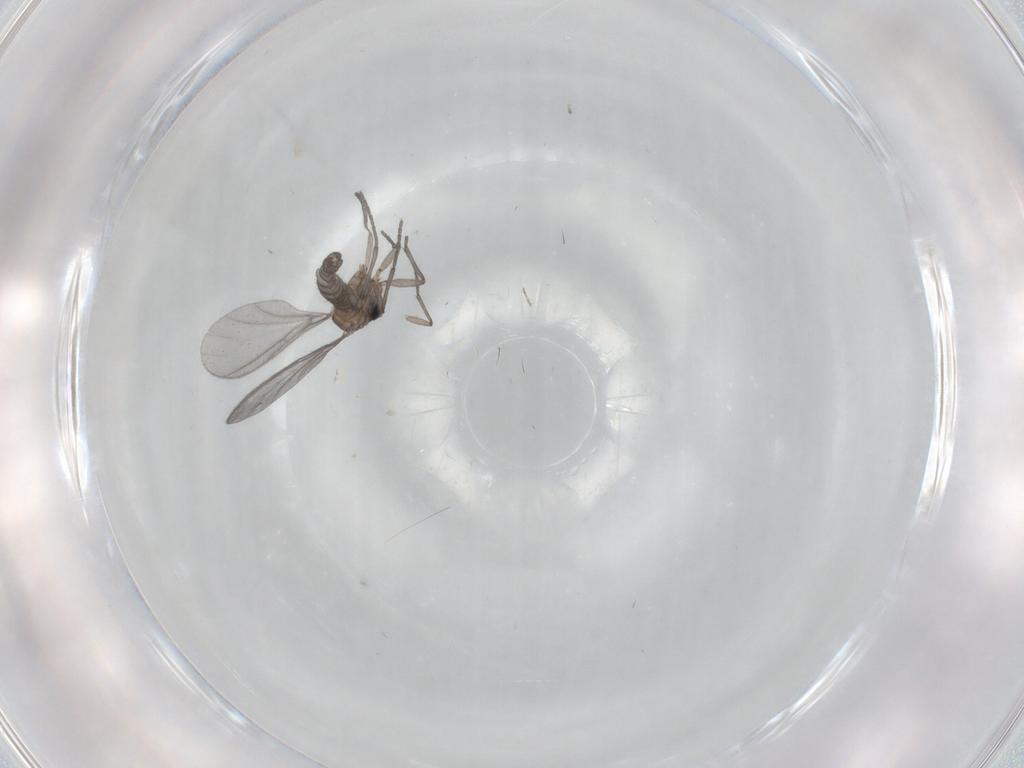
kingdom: Animalia
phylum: Arthropoda
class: Insecta
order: Diptera
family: Sciaridae
